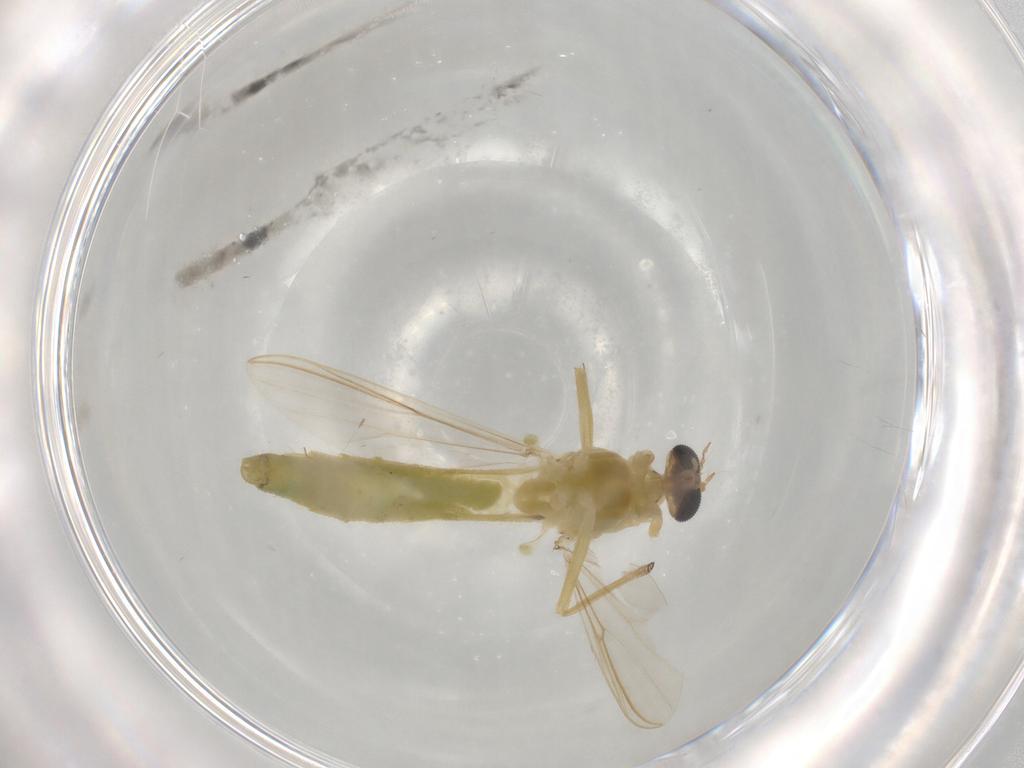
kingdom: Animalia
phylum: Arthropoda
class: Insecta
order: Diptera
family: Chironomidae
